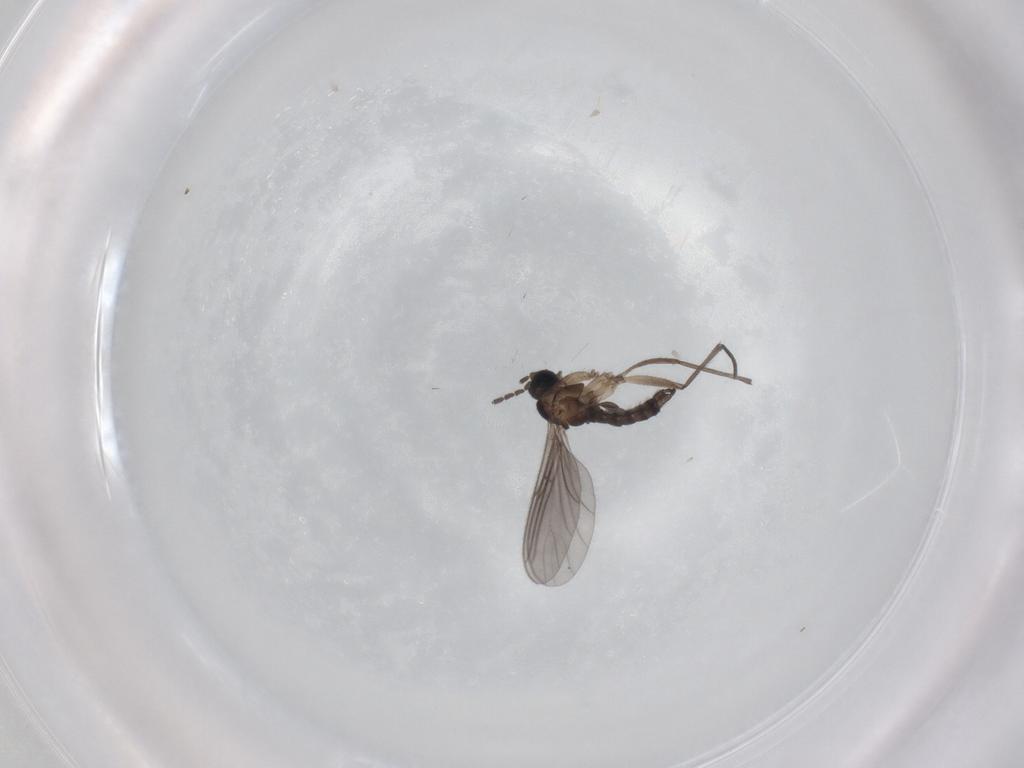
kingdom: Animalia
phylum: Arthropoda
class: Insecta
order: Diptera
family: Sciaridae
